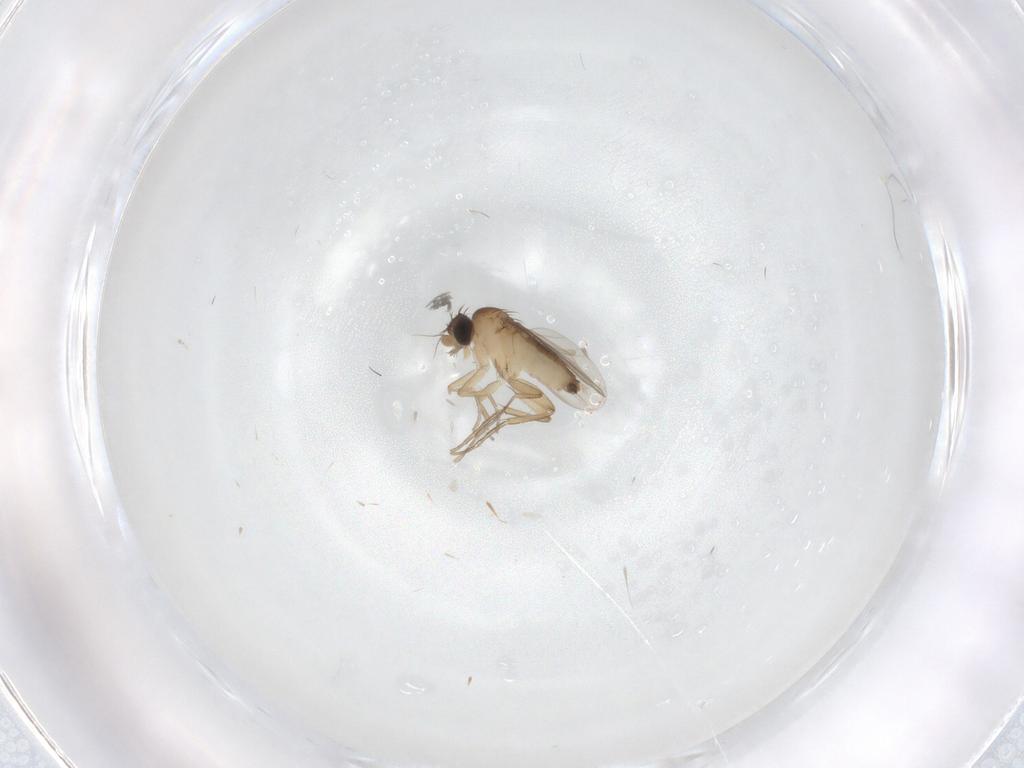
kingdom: Animalia
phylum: Arthropoda
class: Insecta
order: Diptera
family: Phoridae
